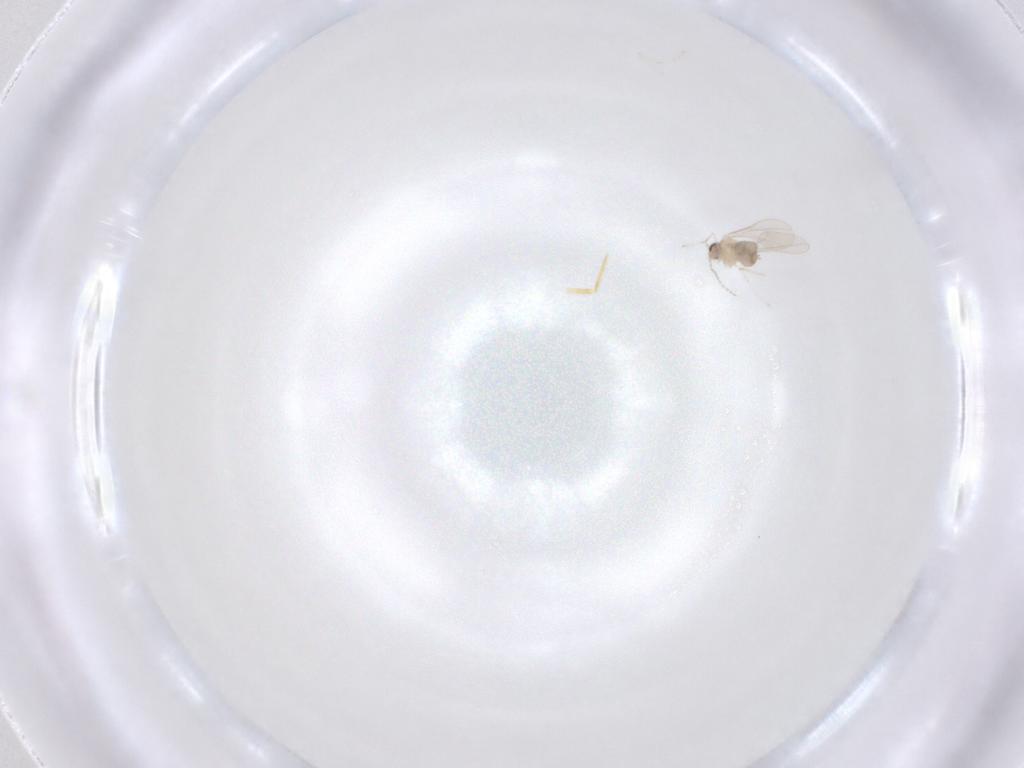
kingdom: Animalia
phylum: Arthropoda
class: Insecta
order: Diptera
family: Cecidomyiidae
